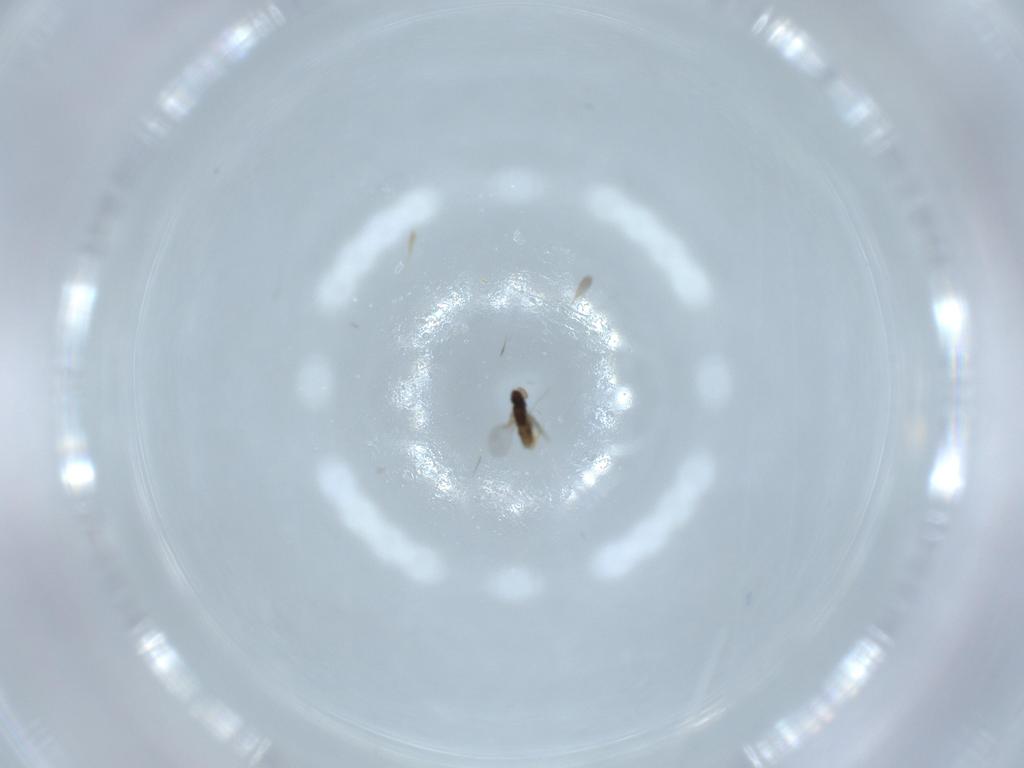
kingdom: Animalia
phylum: Arthropoda
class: Insecta
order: Hymenoptera
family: Encyrtidae
